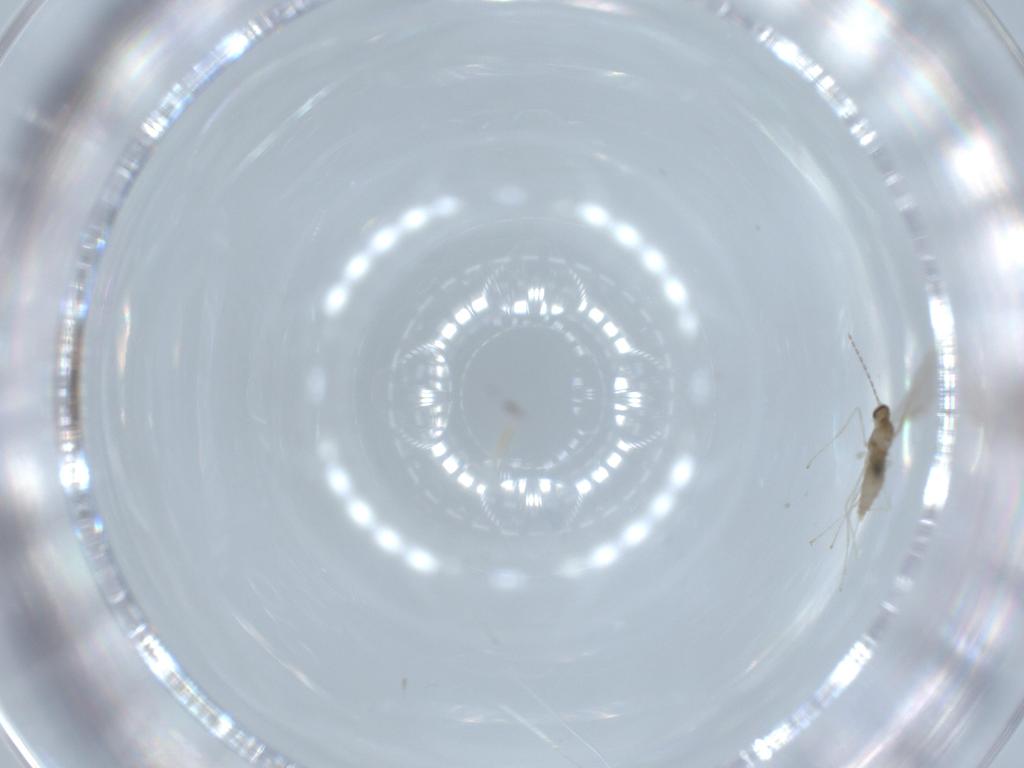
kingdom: Animalia
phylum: Arthropoda
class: Insecta
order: Diptera
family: Cecidomyiidae
